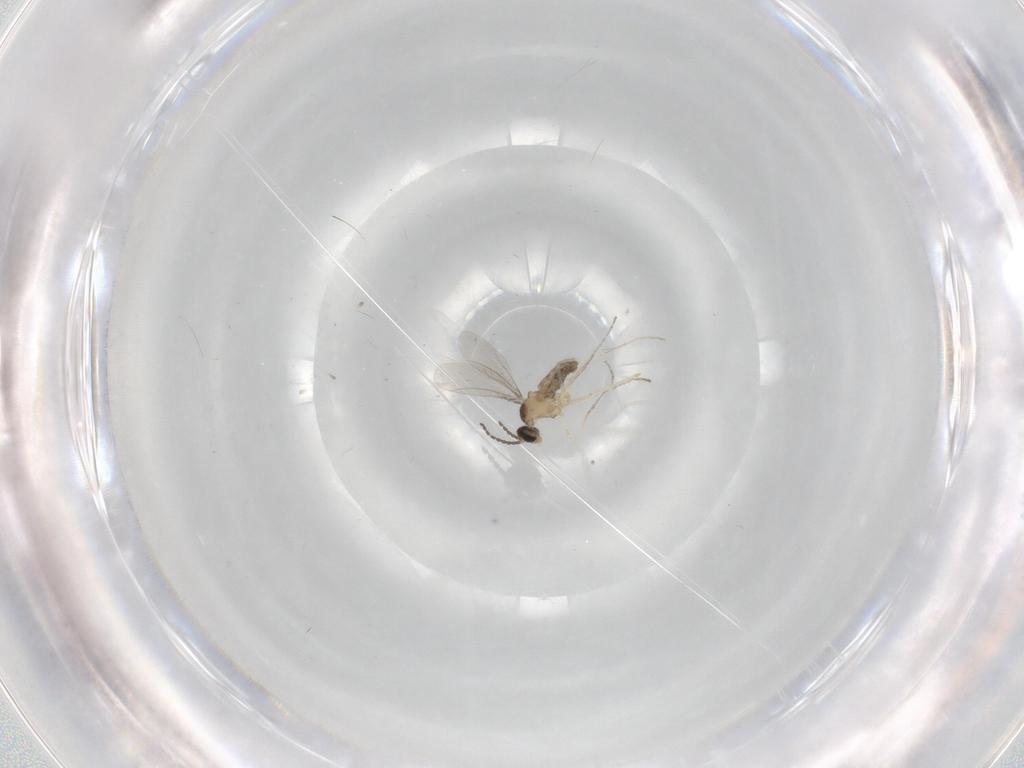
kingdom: Animalia
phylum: Arthropoda
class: Insecta
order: Diptera
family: Cecidomyiidae
